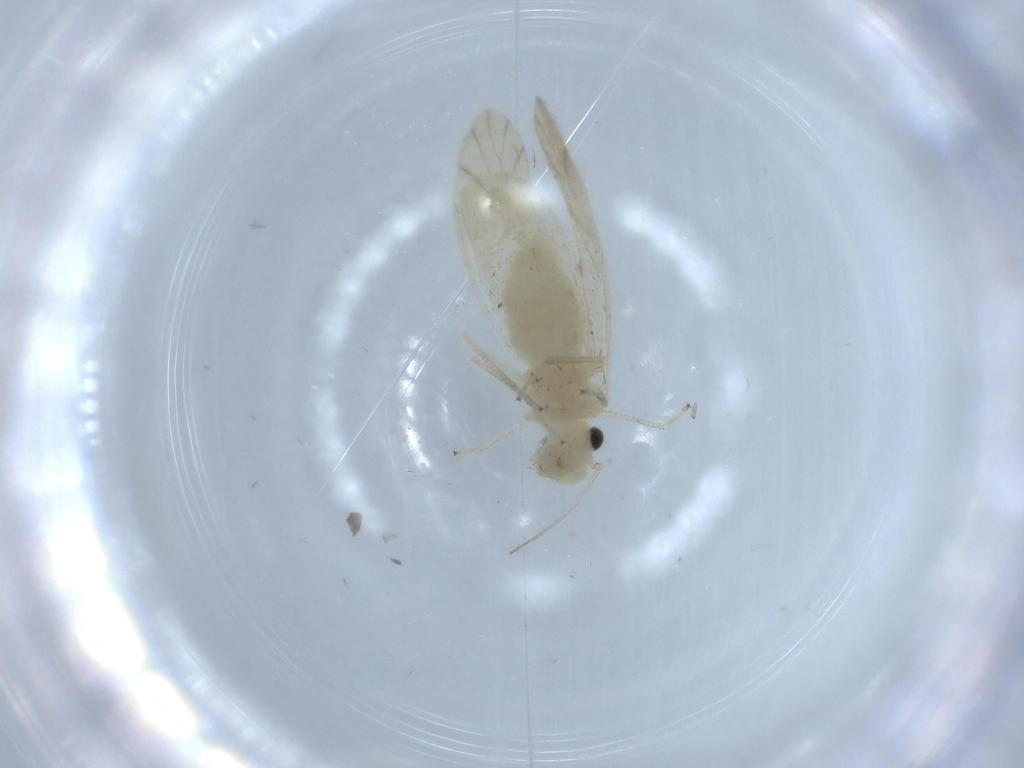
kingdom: Animalia
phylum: Arthropoda
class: Insecta
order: Psocodea
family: Caeciliusidae
